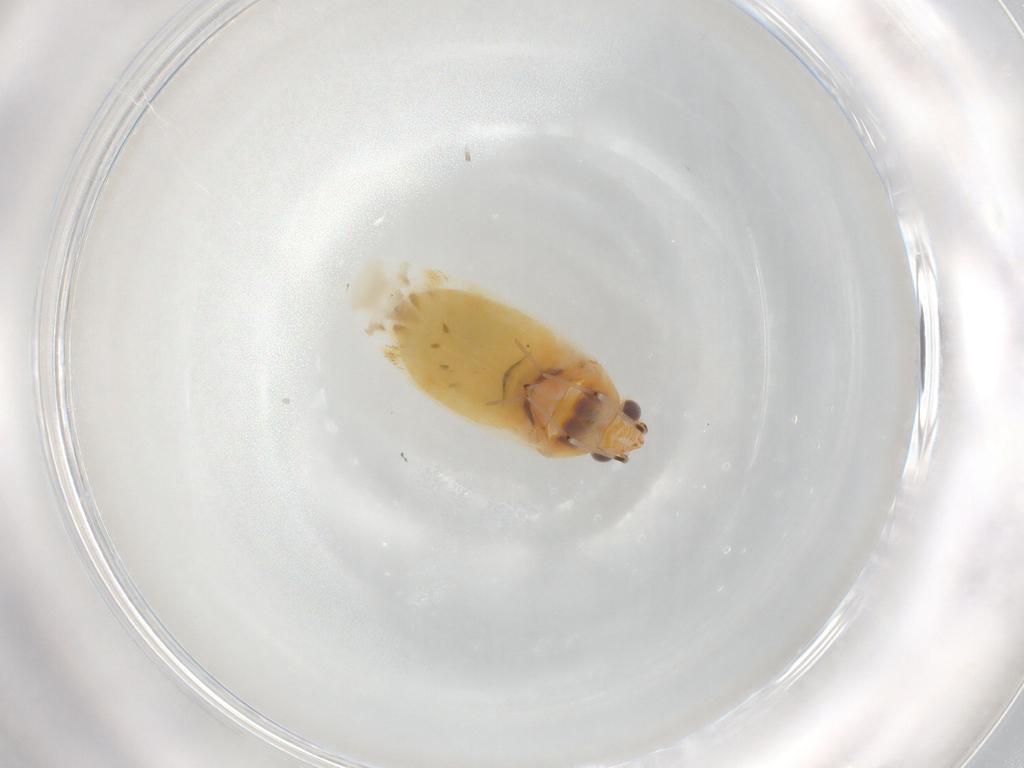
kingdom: Animalia
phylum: Arthropoda
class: Insecta
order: Hemiptera
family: Miridae
